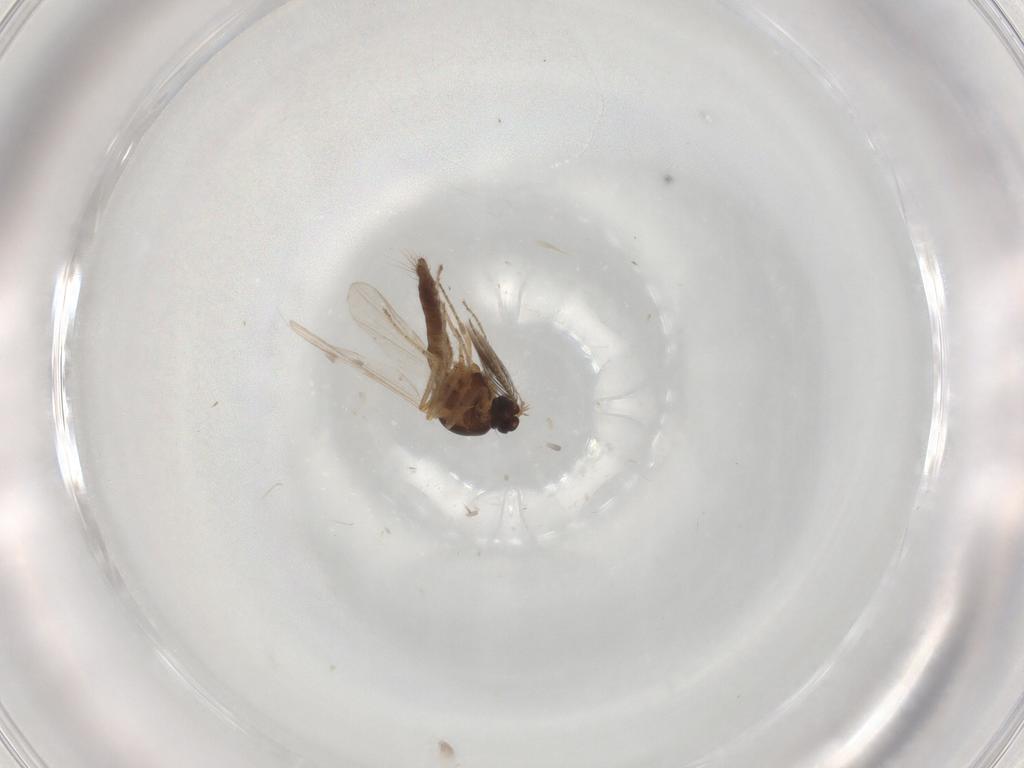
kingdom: Animalia
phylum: Arthropoda
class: Insecta
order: Diptera
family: Ceratopogonidae
